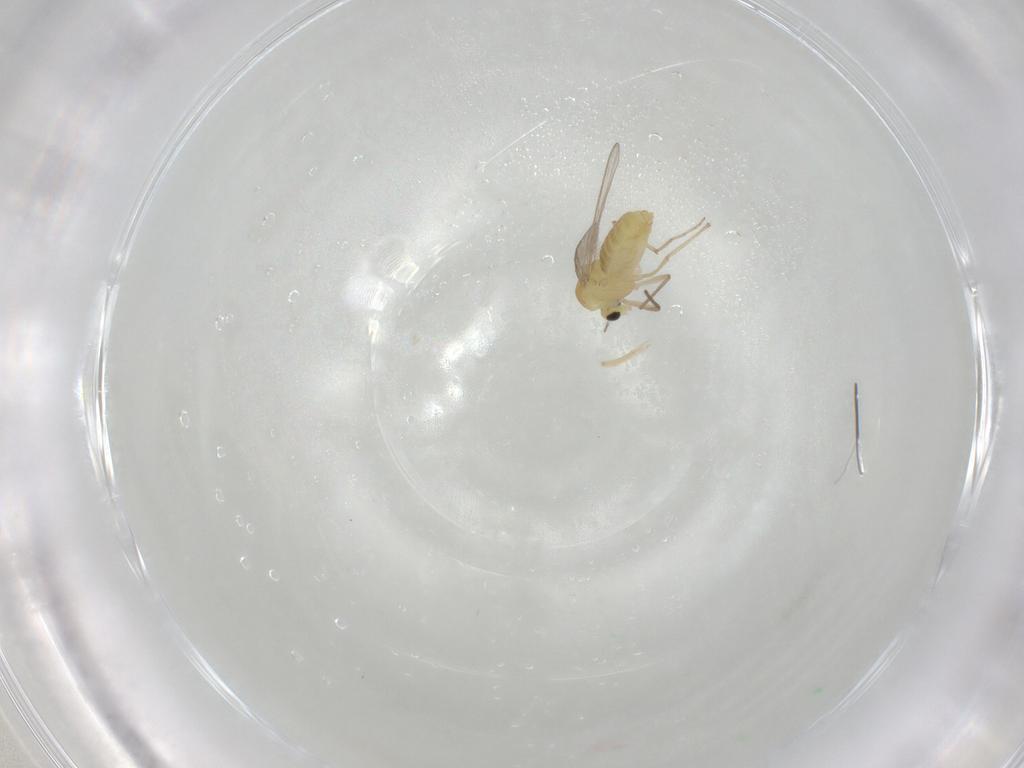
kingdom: Animalia
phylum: Arthropoda
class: Insecta
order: Diptera
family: Chironomidae
